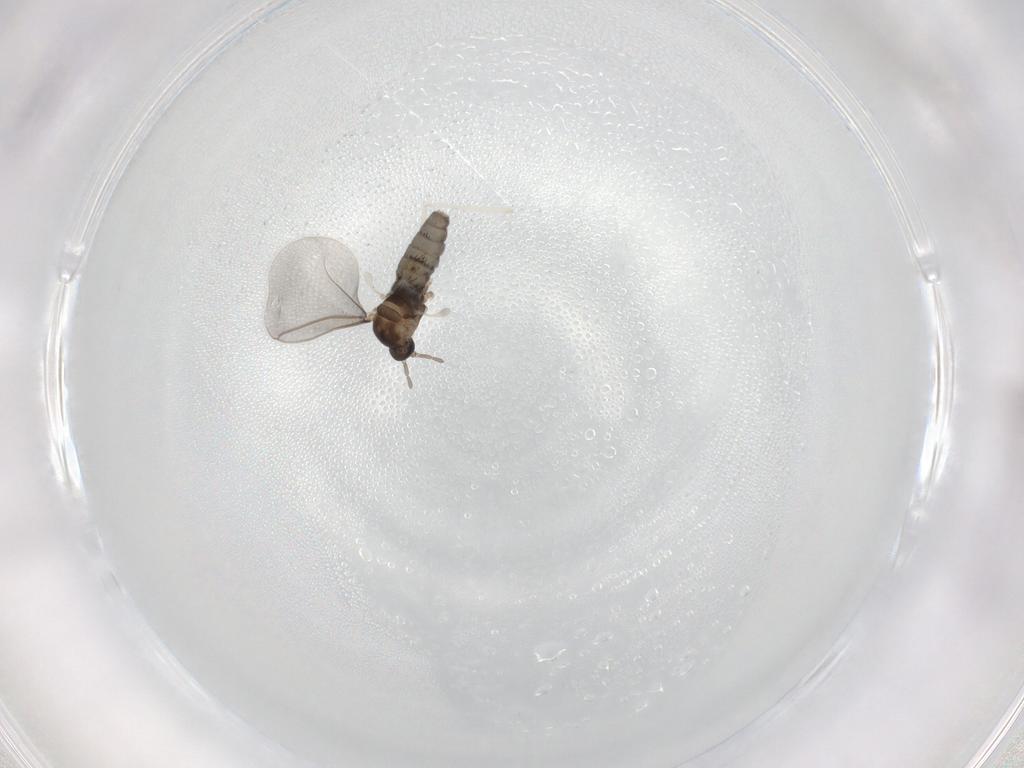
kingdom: Animalia
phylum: Arthropoda
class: Insecta
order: Diptera
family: Cecidomyiidae
